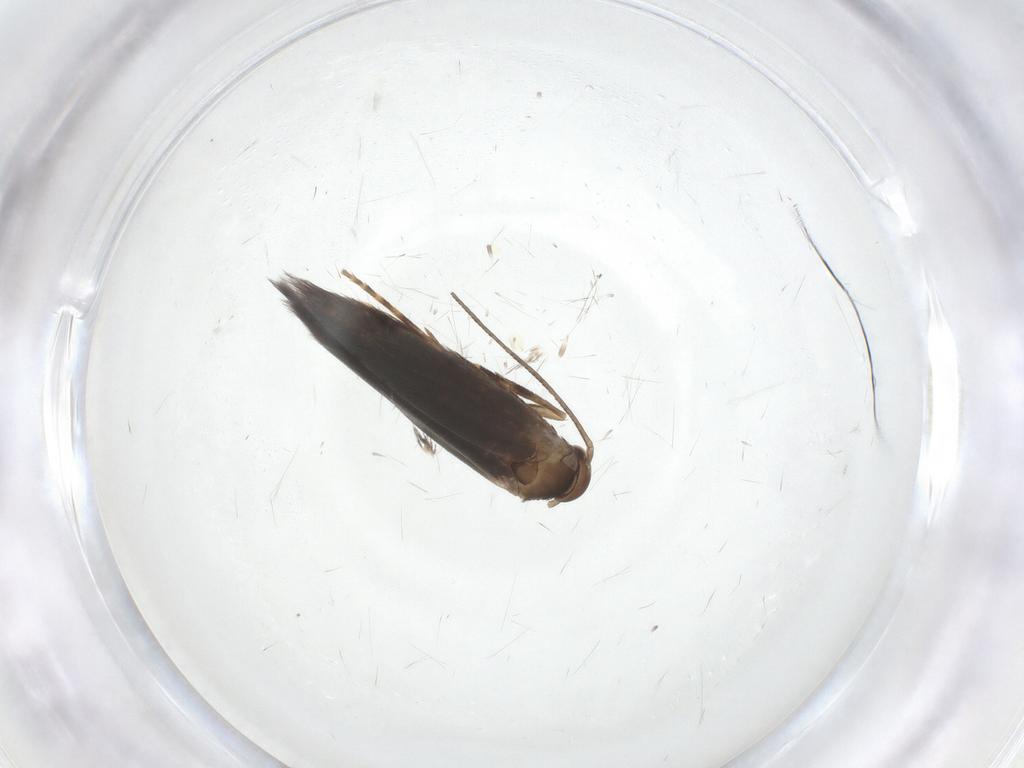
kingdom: Animalia
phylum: Arthropoda
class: Insecta
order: Lepidoptera
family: Elachistidae
